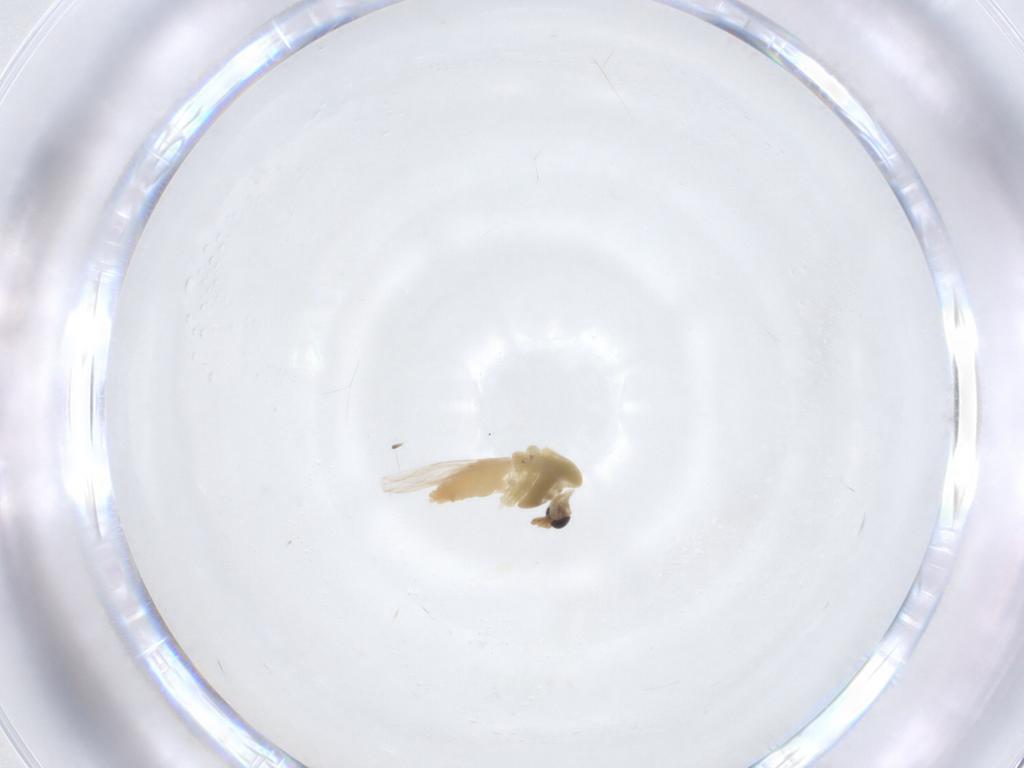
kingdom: Animalia
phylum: Arthropoda
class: Insecta
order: Diptera
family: Chironomidae
